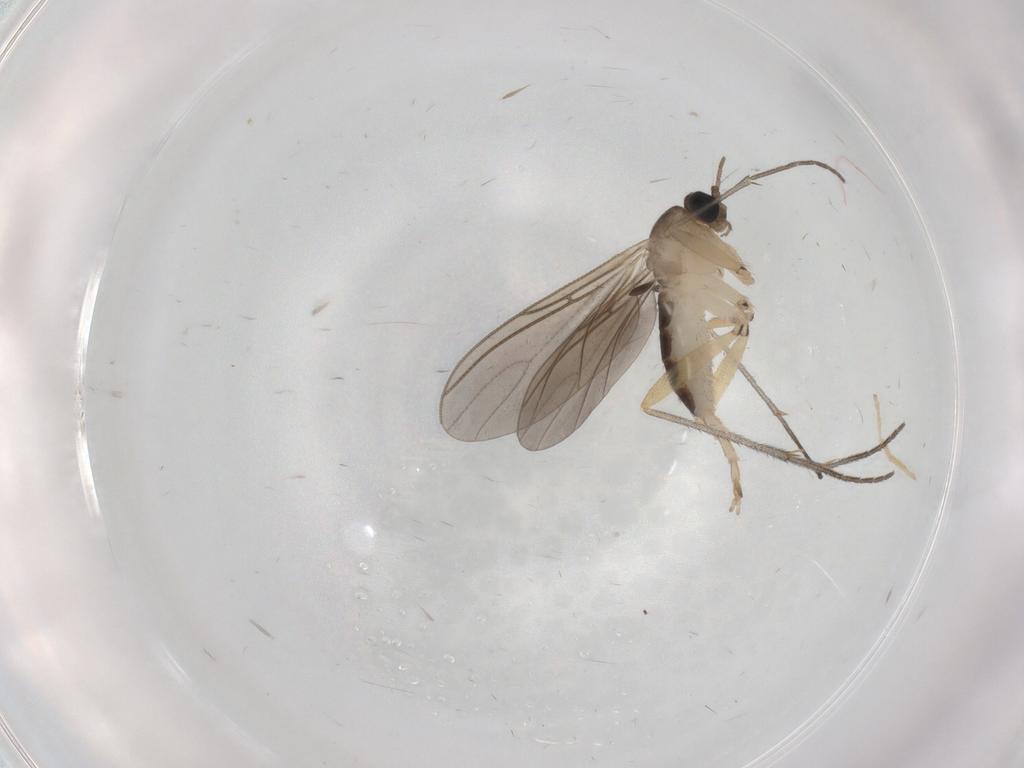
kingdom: Animalia
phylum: Arthropoda
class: Insecta
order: Diptera
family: Sciaridae
